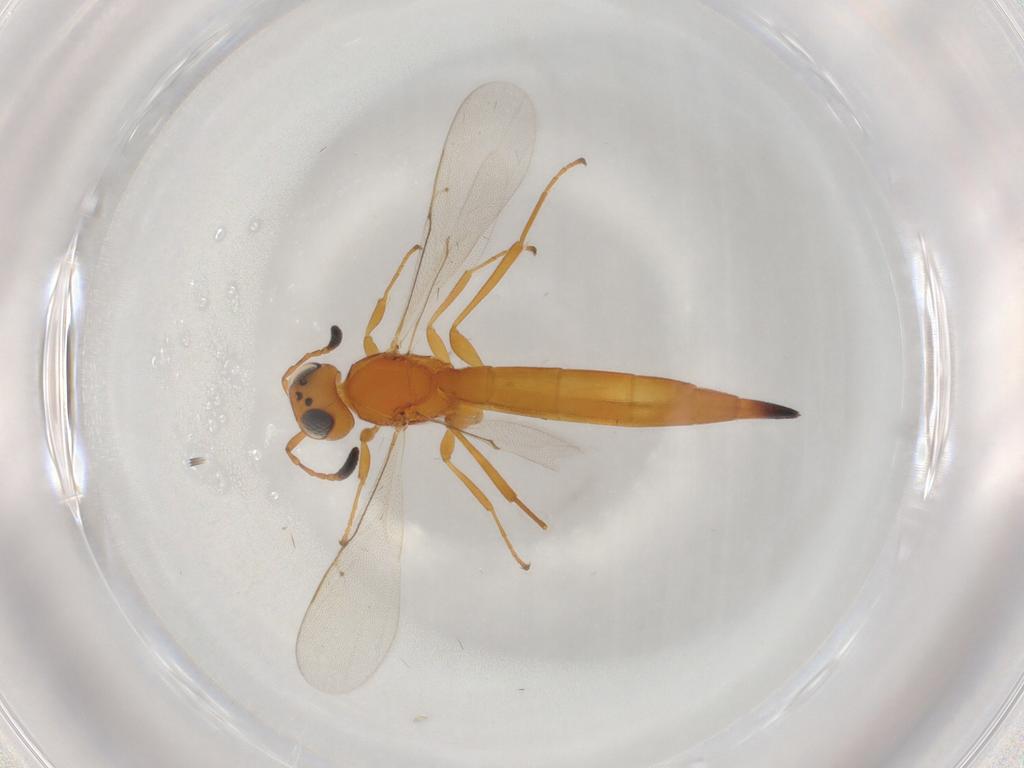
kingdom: Animalia
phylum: Arthropoda
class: Insecta
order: Hymenoptera
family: Scelionidae
